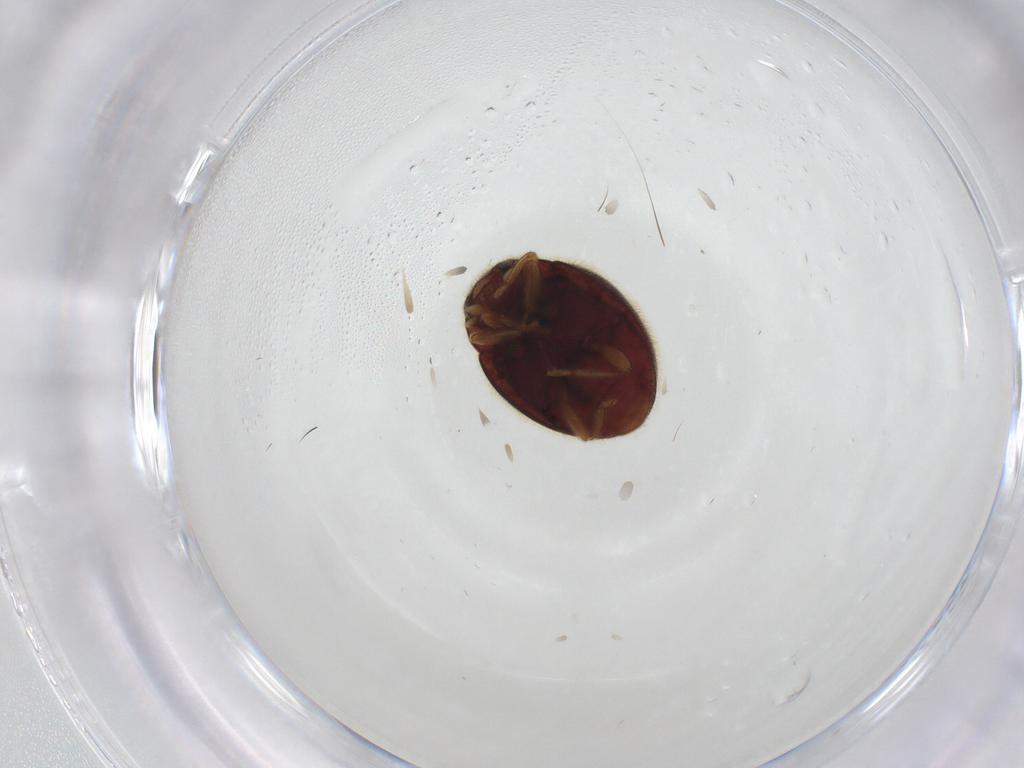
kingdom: Animalia
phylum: Arthropoda
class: Insecta
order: Coleoptera
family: Coccinellidae
